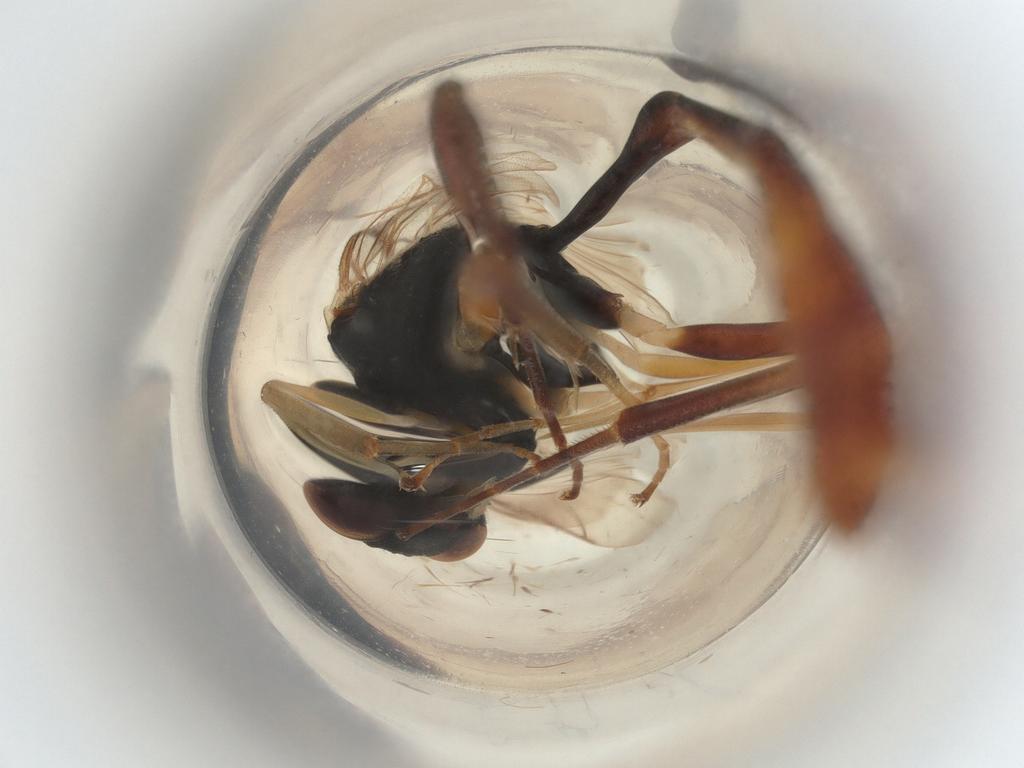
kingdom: Animalia
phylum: Arthropoda
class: Insecta
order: Hymenoptera
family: Ichneumonidae
